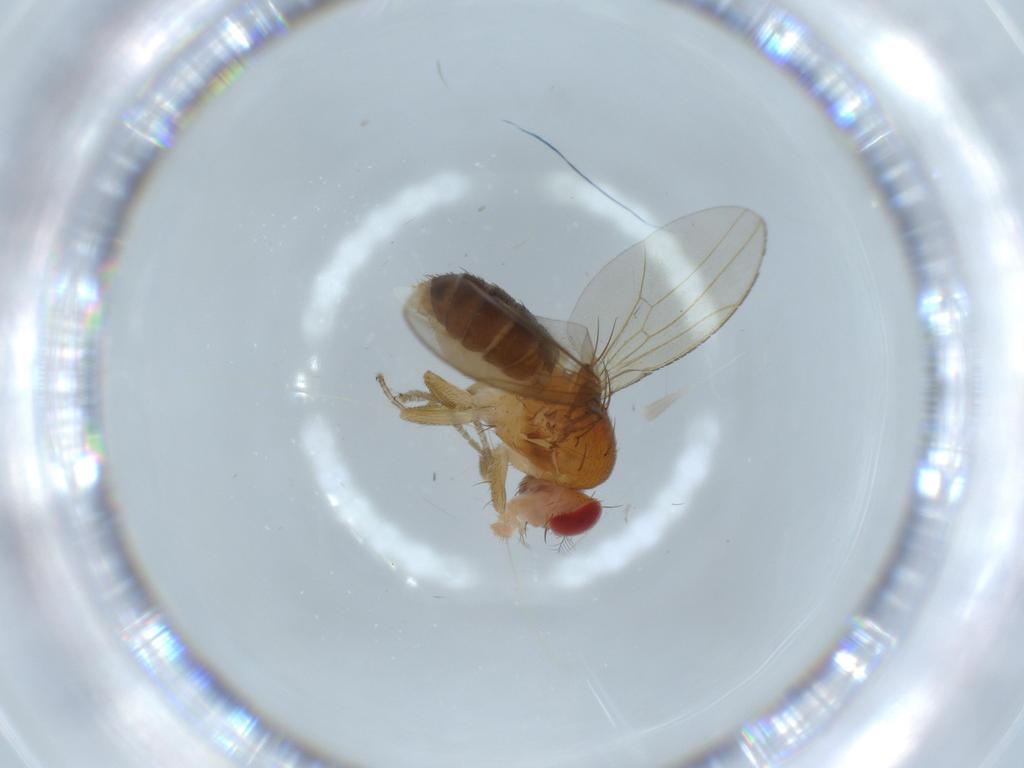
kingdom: Animalia
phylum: Arthropoda
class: Insecta
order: Diptera
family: Drosophilidae
